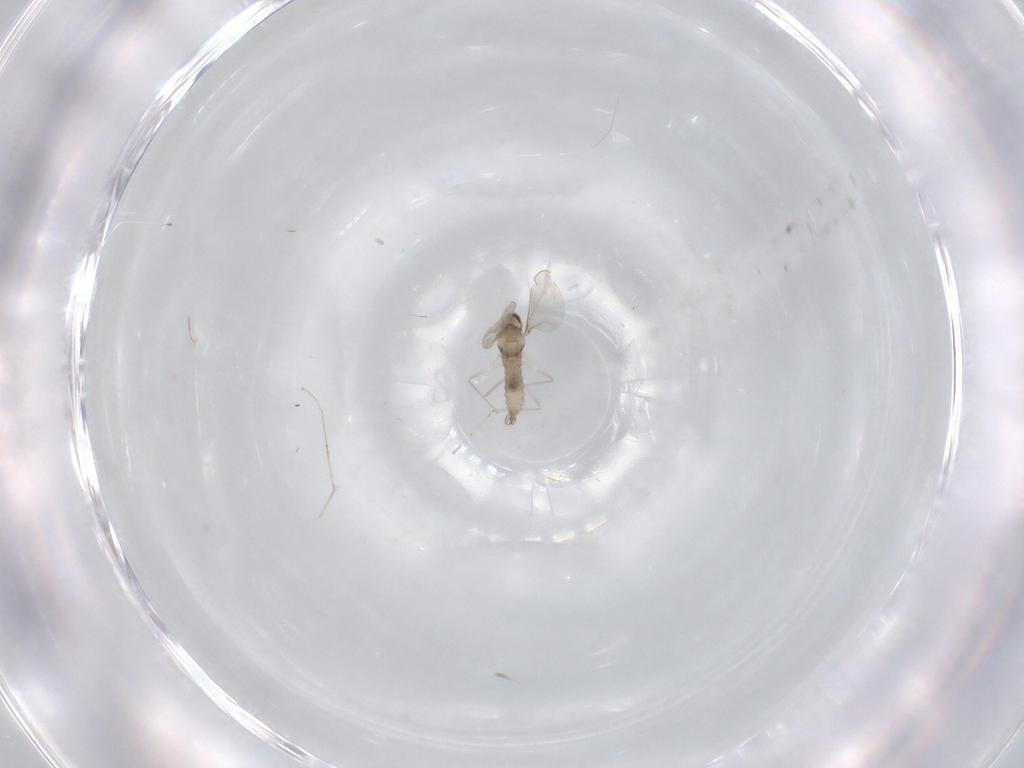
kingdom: Animalia
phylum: Arthropoda
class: Insecta
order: Diptera
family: Cecidomyiidae
